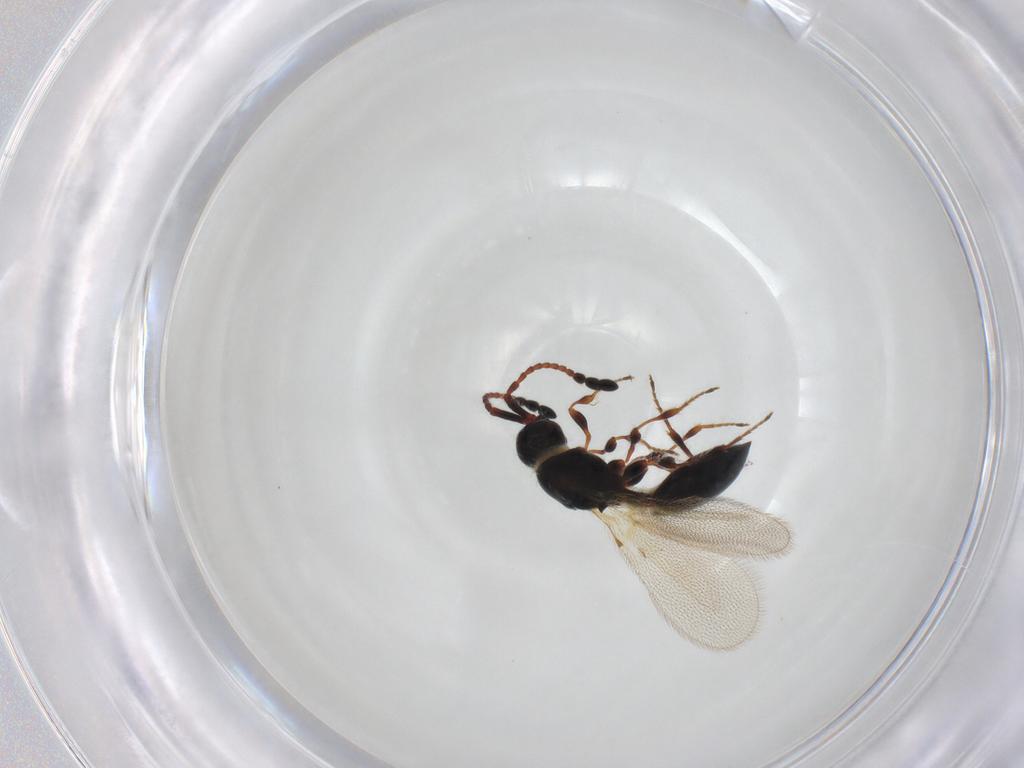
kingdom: Animalia
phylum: Arthropoda
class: Insecta
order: Hymenoptera
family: Diapriidae
